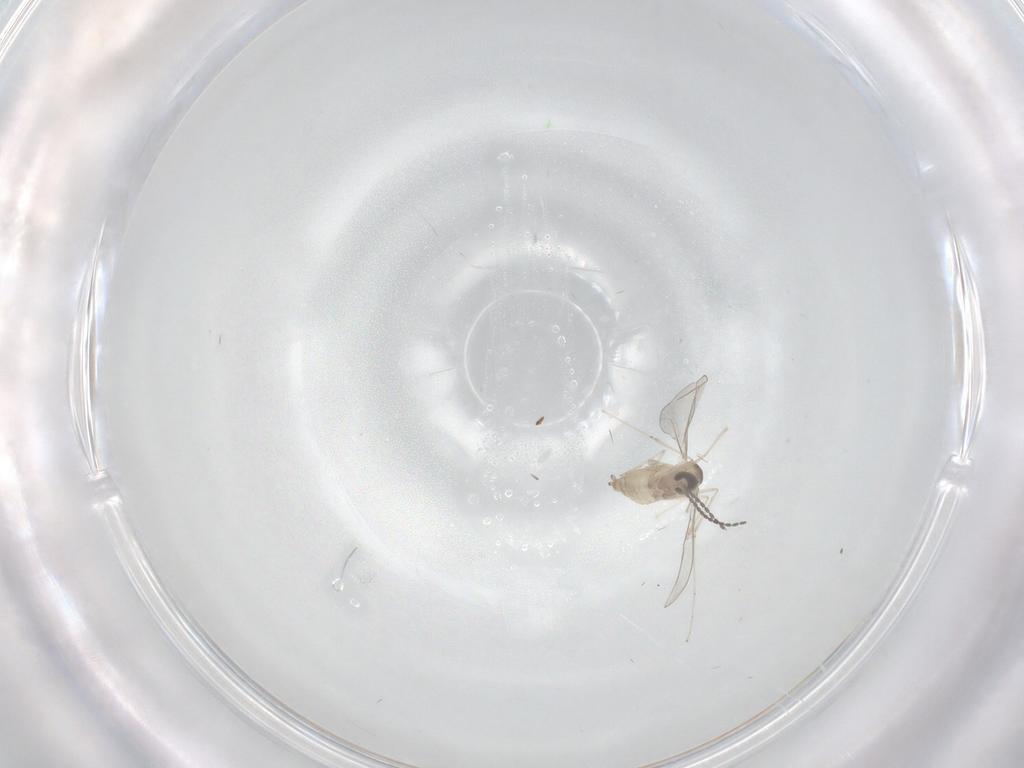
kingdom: Animalia
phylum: Arthropoda
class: Insecta
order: Diptera
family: Cecidomyiidae
